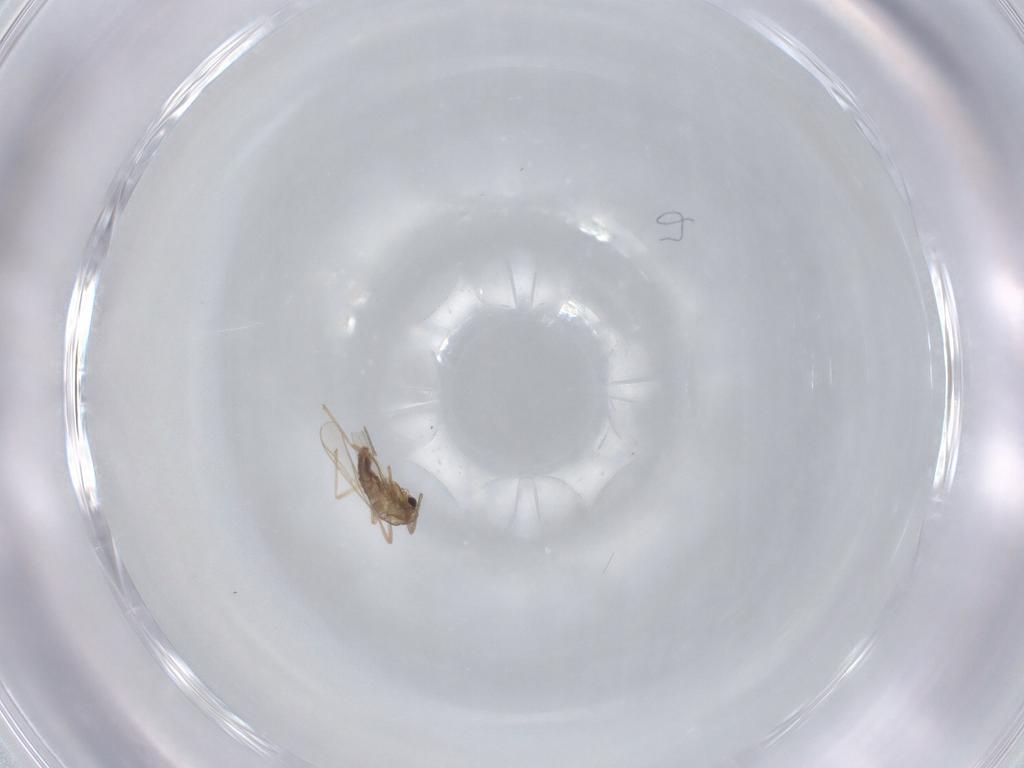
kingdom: Animalia
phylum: Arthropoda
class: Insecta
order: Diptera
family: Chironomidae
